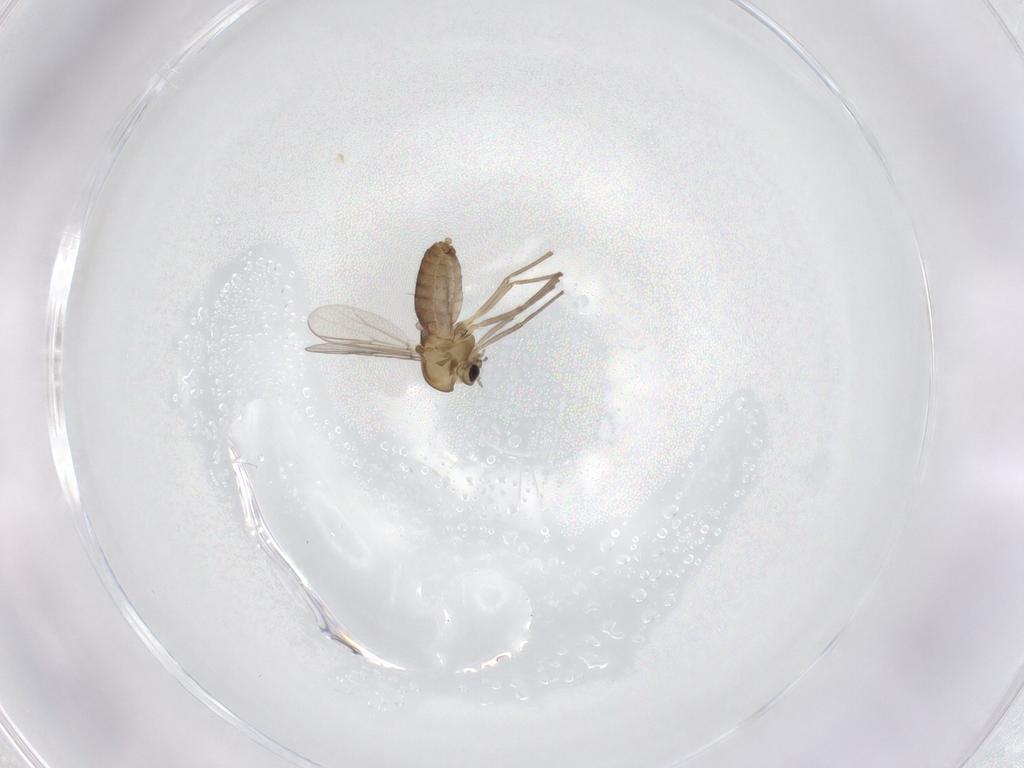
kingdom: Animalia
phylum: Arthropoda
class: Insecta
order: Diptera
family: Chironomidae
